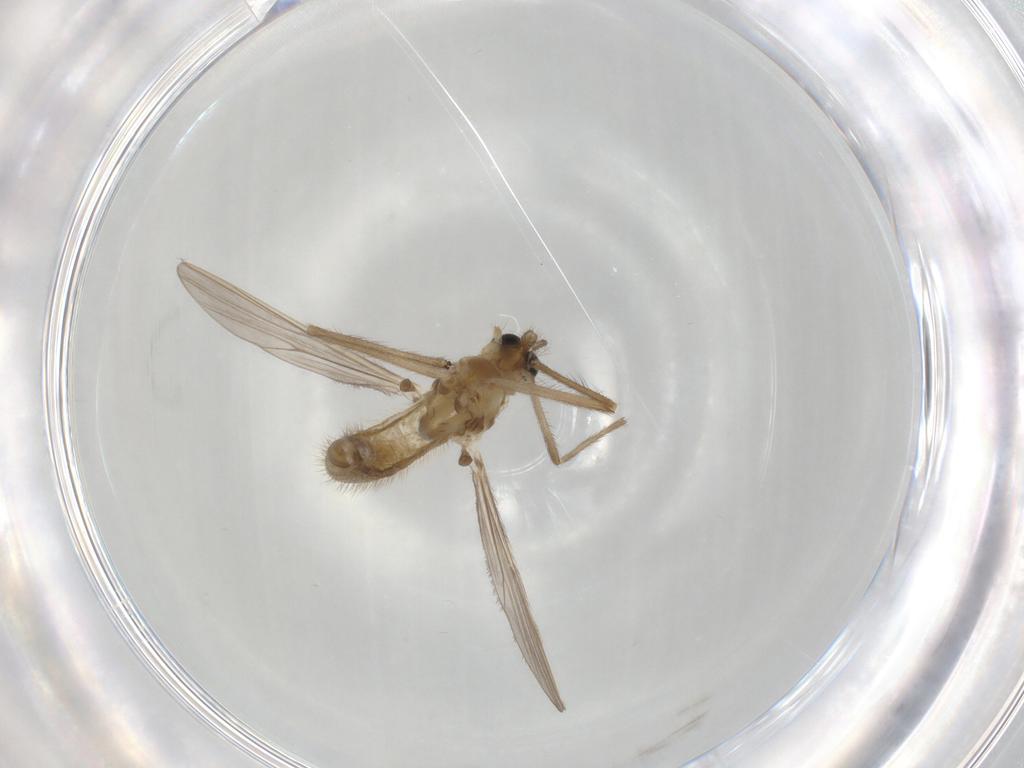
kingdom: Animalia
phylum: Arthropoda
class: Insecta
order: Diptera
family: Chironomidae
